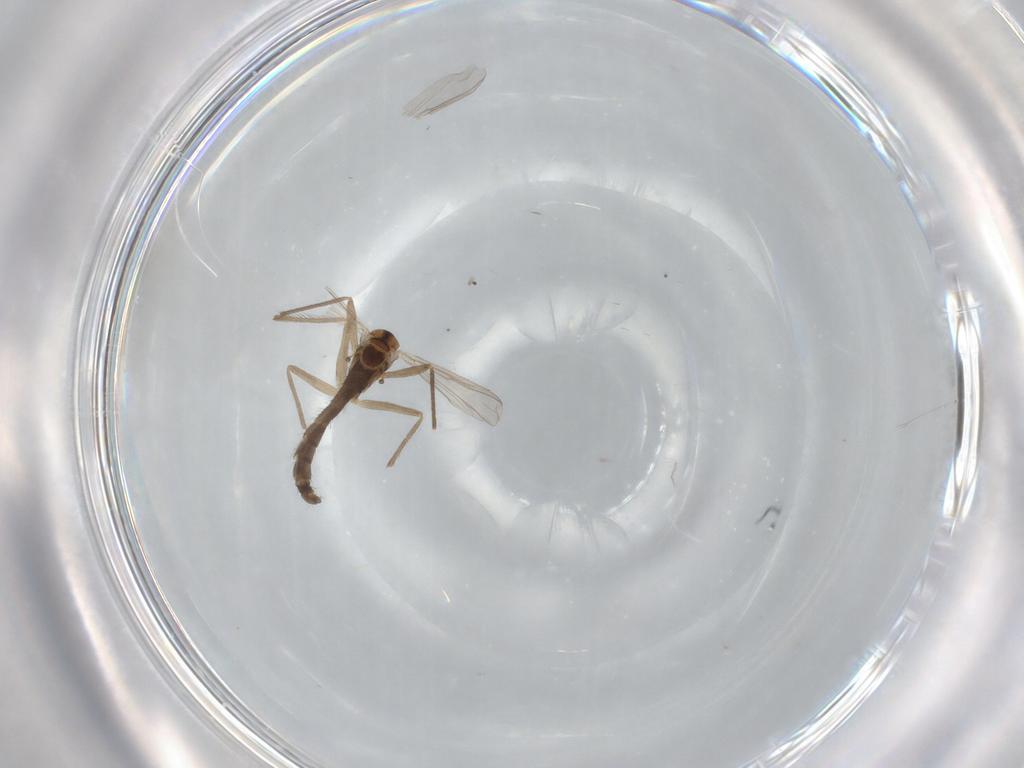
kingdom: Animalia
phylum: Arthropoda
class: Insecta
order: Diptera
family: Chironomidae
